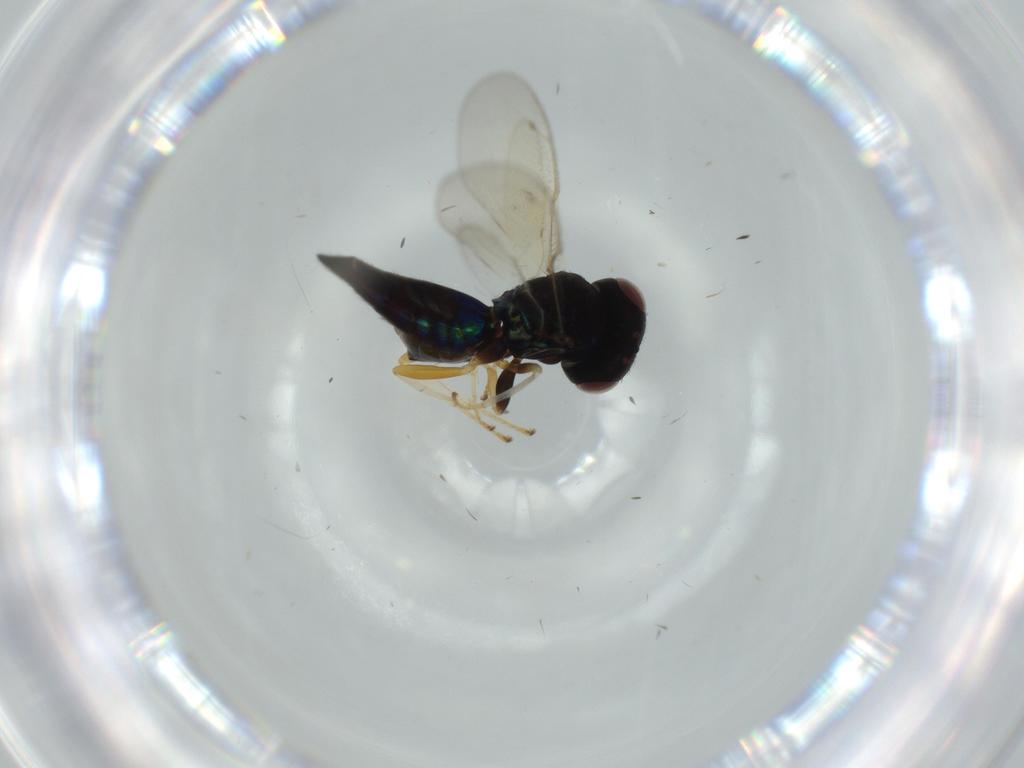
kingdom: Animalia
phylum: Arthropoda
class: Insecta
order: Hymenoptera
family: Pteromalidae
